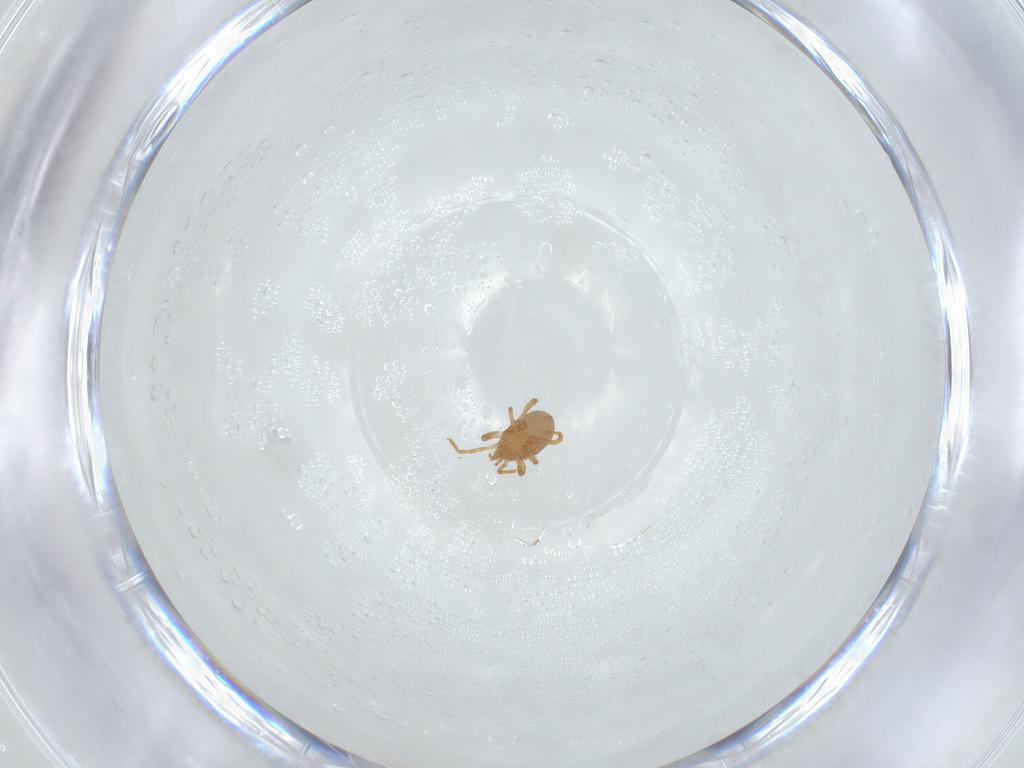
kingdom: Animalia
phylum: Arthropoda
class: Arachnida
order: Mesostigmata
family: Parasitidae
